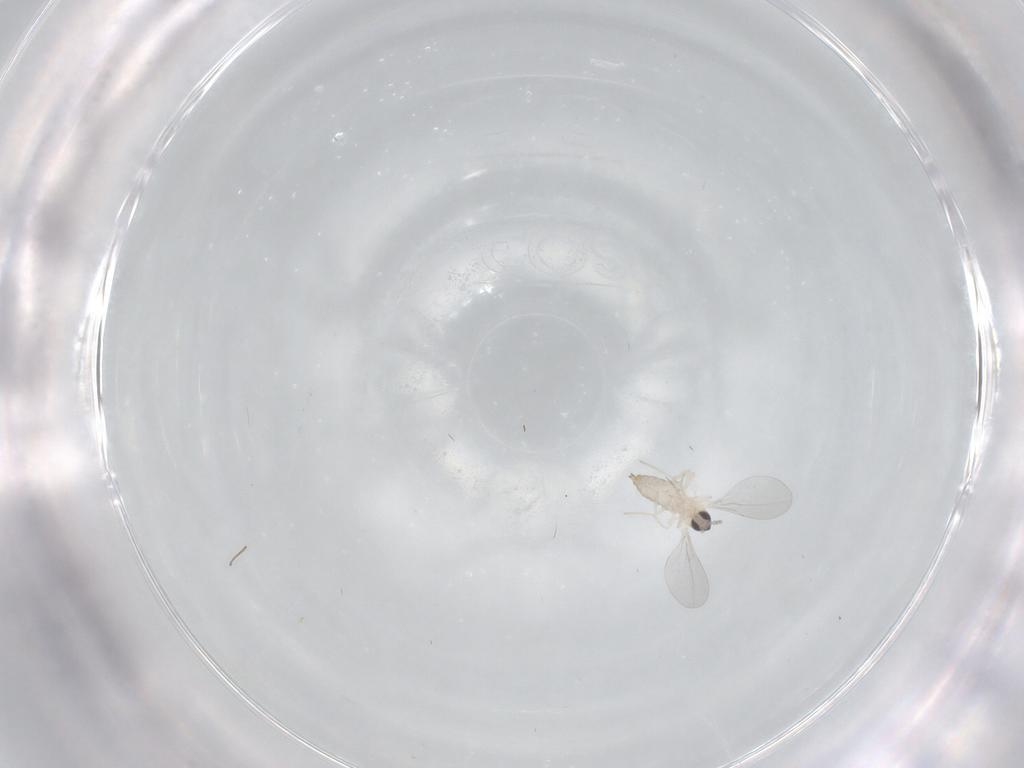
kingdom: Animalia
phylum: Arthropoda
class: Insecta
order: Diptera
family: Cecidomyiidae
